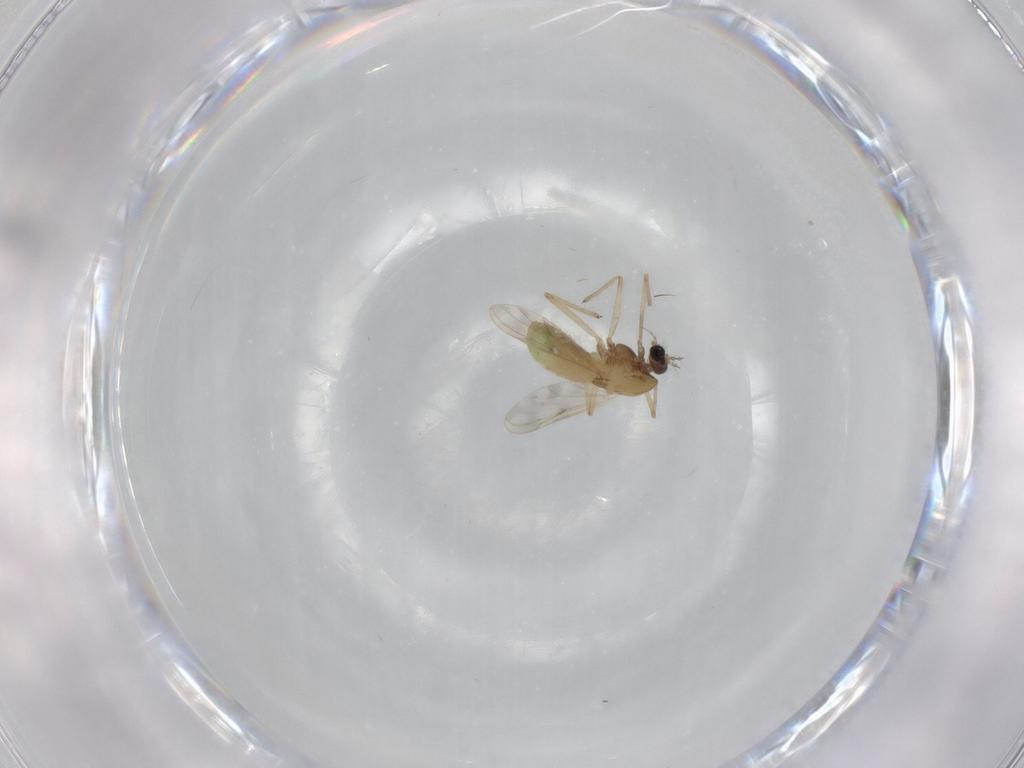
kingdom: Animalia
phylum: Arthropoda
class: Insecta
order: Diptera
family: Chironomidae
